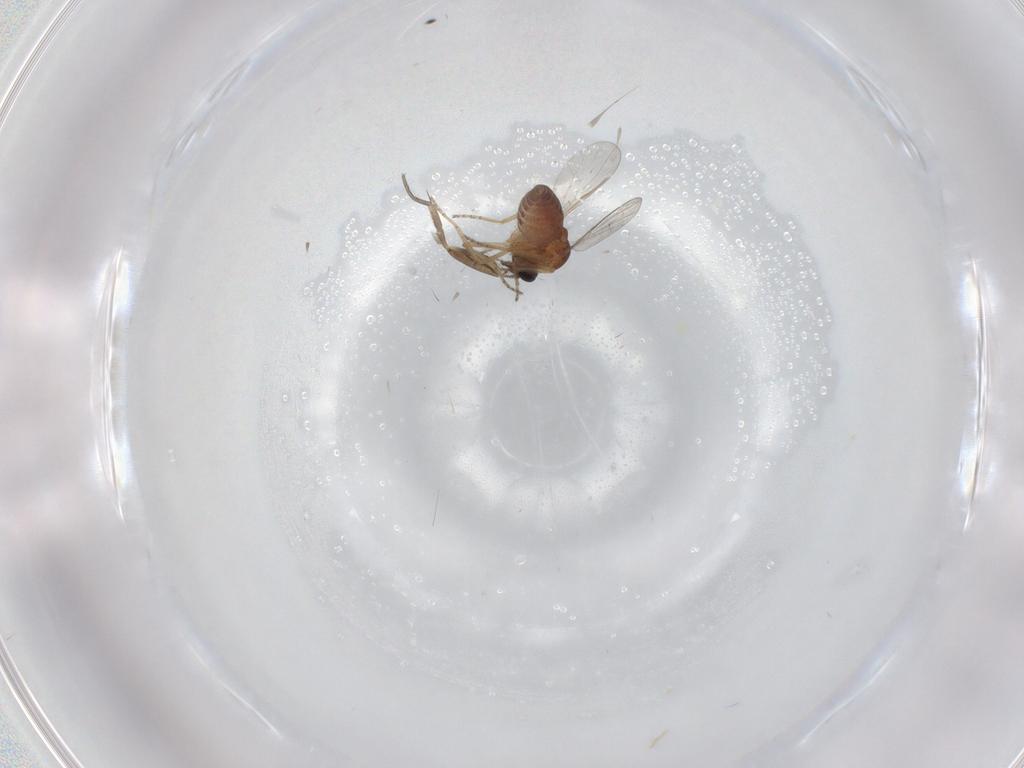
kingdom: Animalia
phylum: Arthropoda
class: Insecta
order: Diptera
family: Ceratopogonidae
